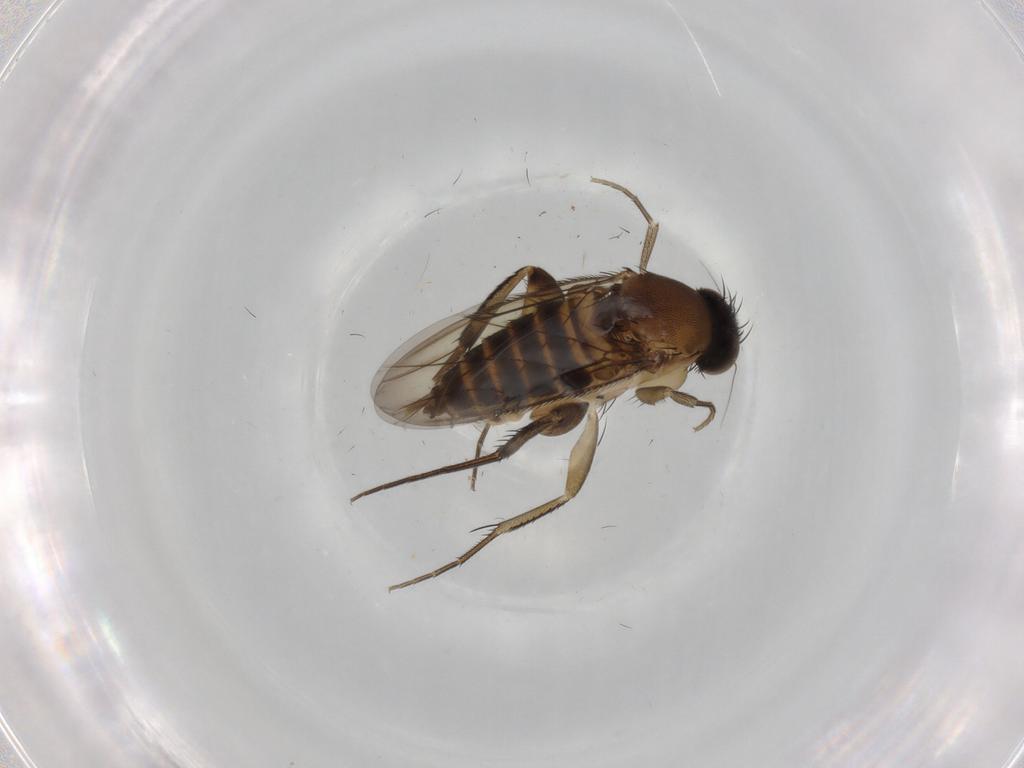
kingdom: Animalia
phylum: Arthropoda
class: Insecta
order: Diptera
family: Phoridae
